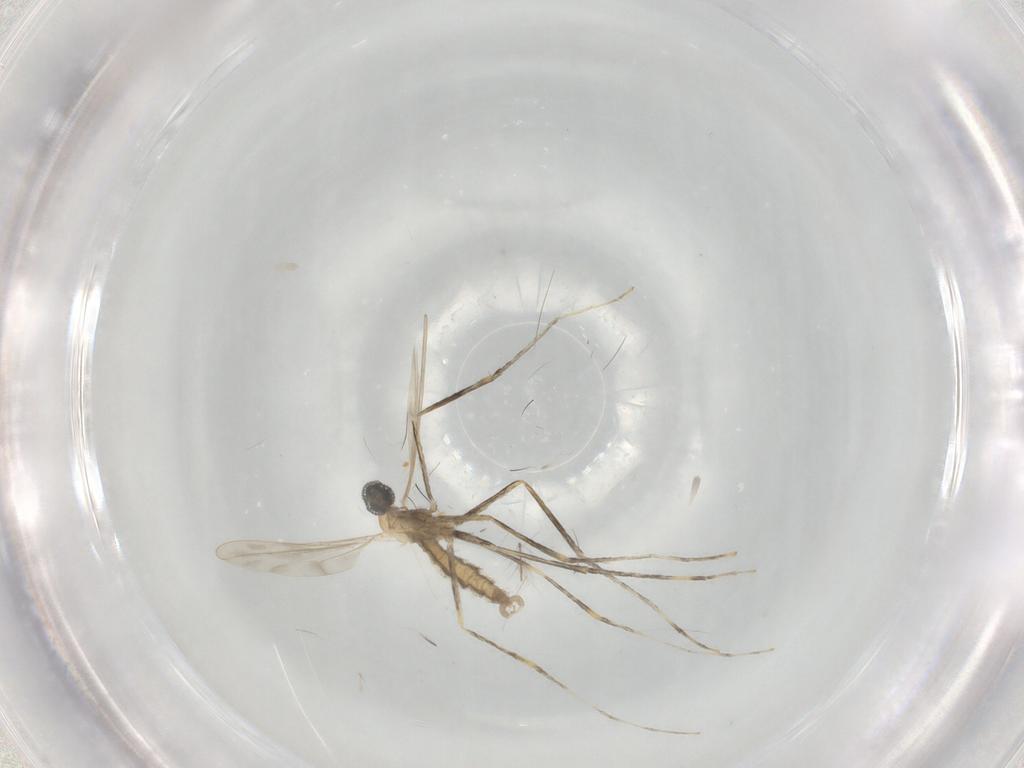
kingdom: Animalia
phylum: Arthropoda
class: Insecta
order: Diptera
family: Cecidomyiidae
